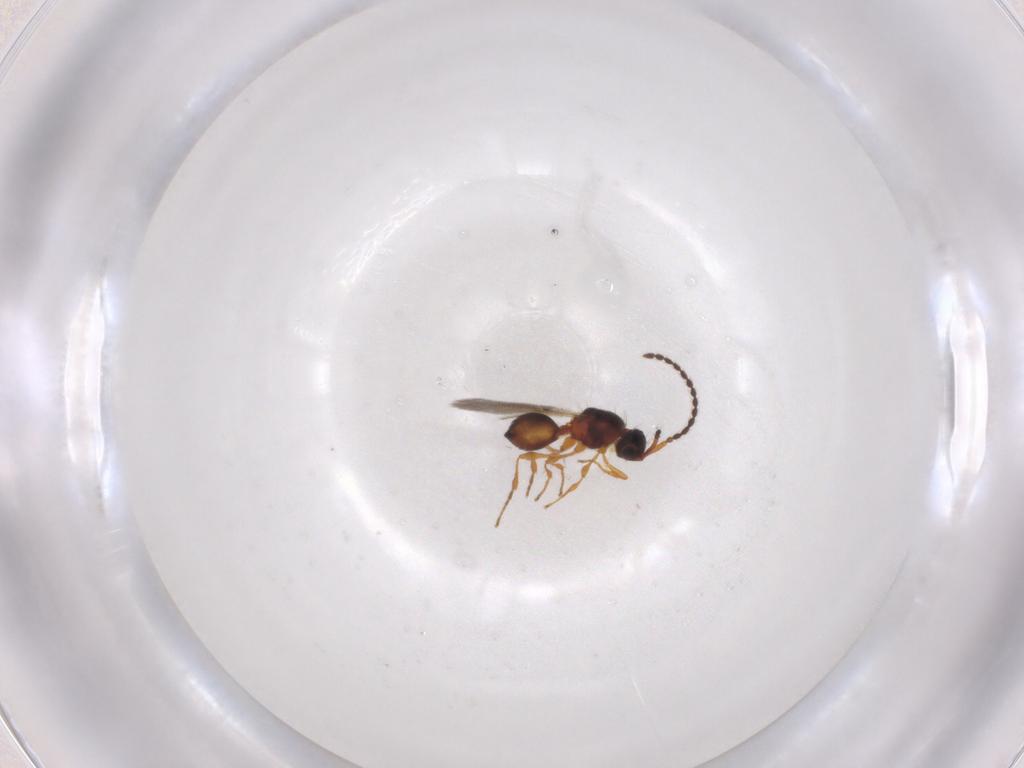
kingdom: Animalia
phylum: Arthropoda
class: Insecta
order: Hymenoptera
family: Diapriidae
